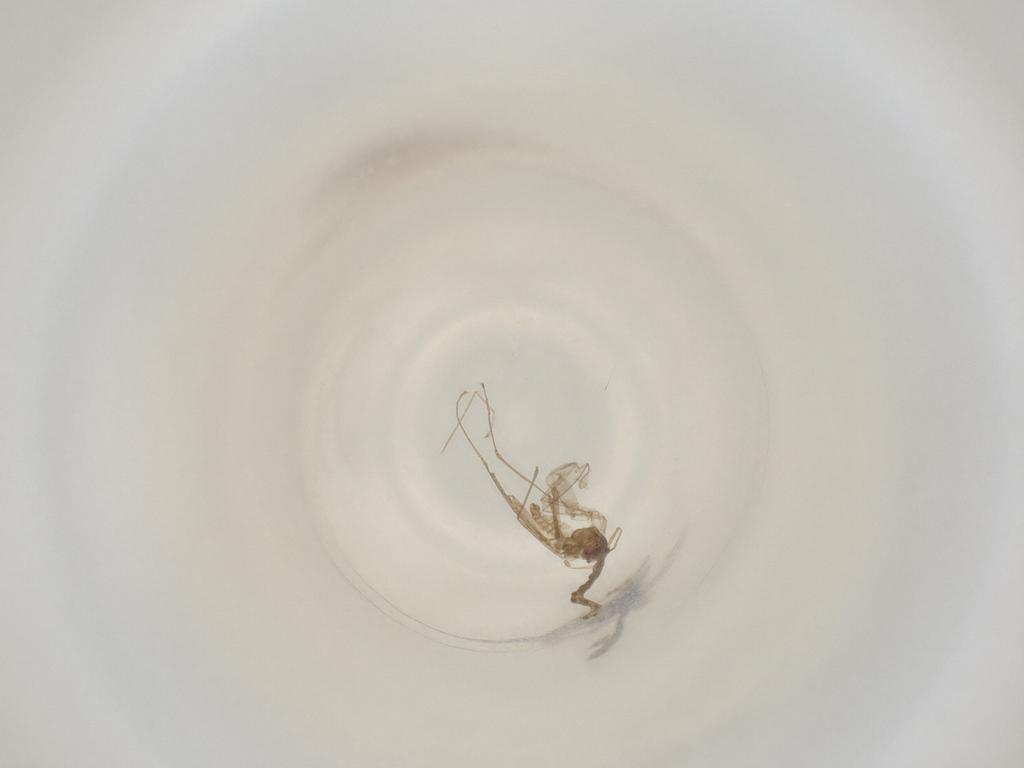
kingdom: Animalia
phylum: Arthropoda
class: Insecta
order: Diptera
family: Cecidomyiidae
